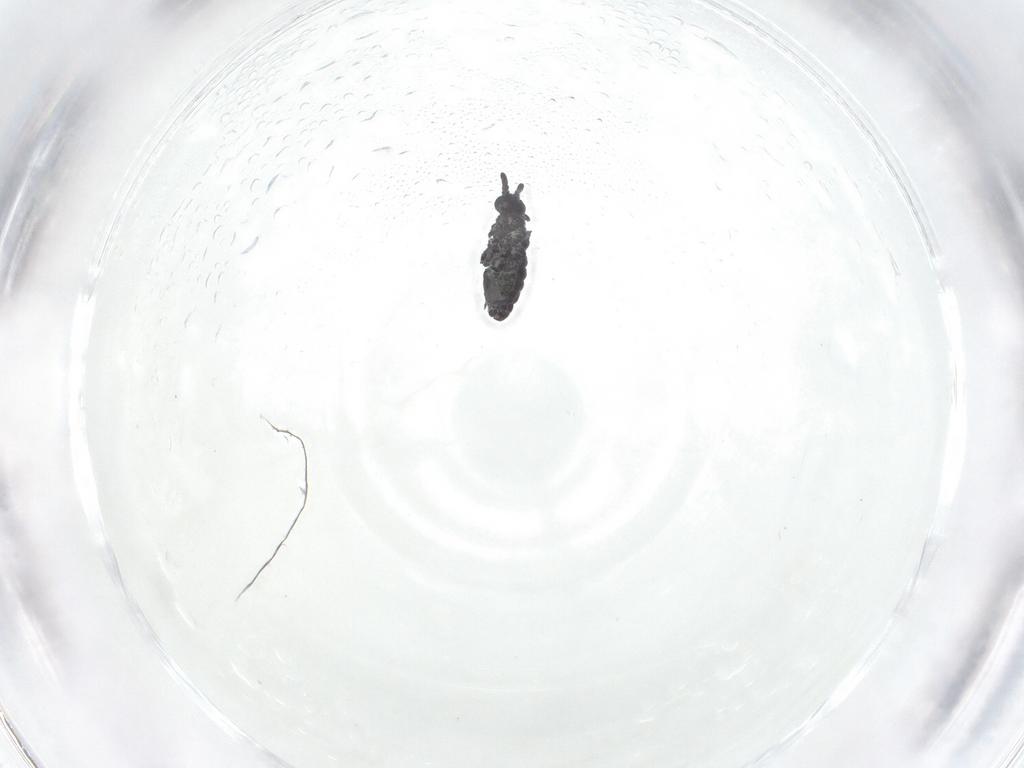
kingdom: Animalia
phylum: Arthropoda
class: Collembola
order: Poduromorpha
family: Hypogastruridae
